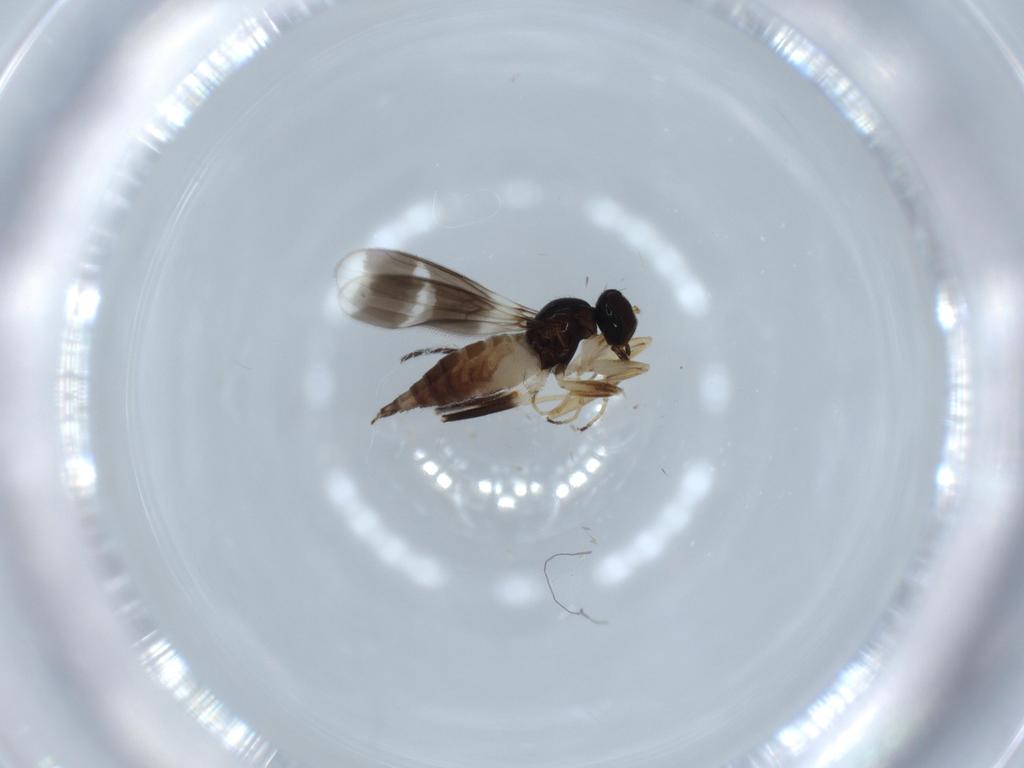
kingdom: Animalia
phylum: Arthropoda
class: Insecta
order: Diptera
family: Hybotidae
